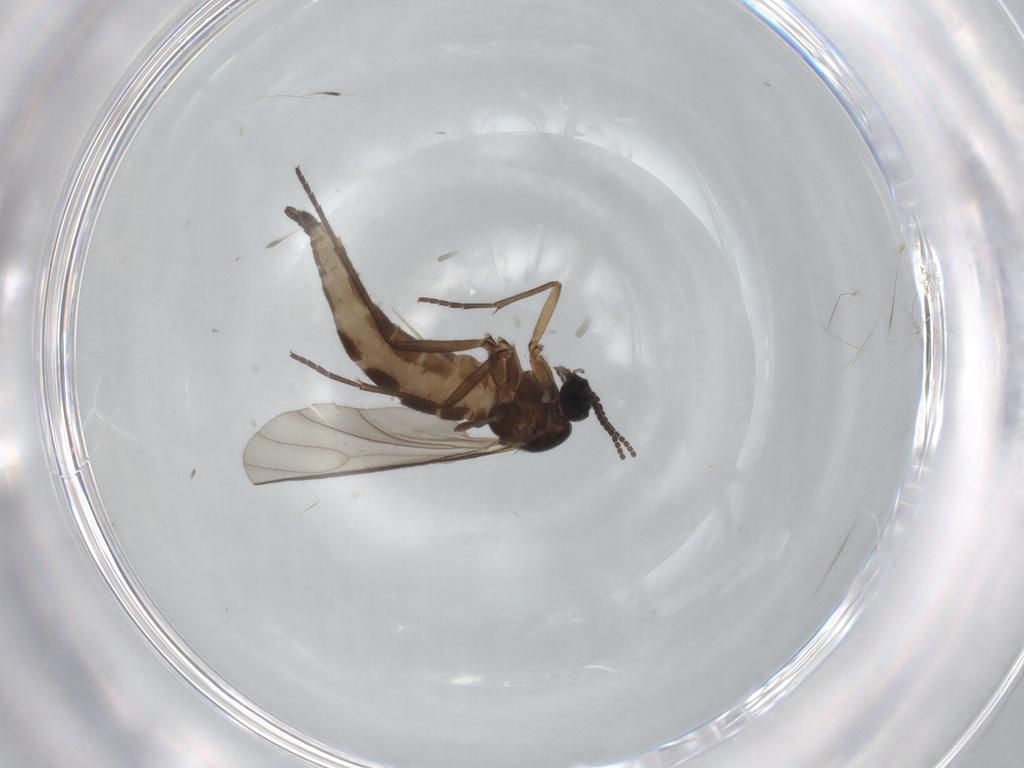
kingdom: Animalia
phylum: Arthropoda
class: Insecta
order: Diptera
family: Sciaridae
